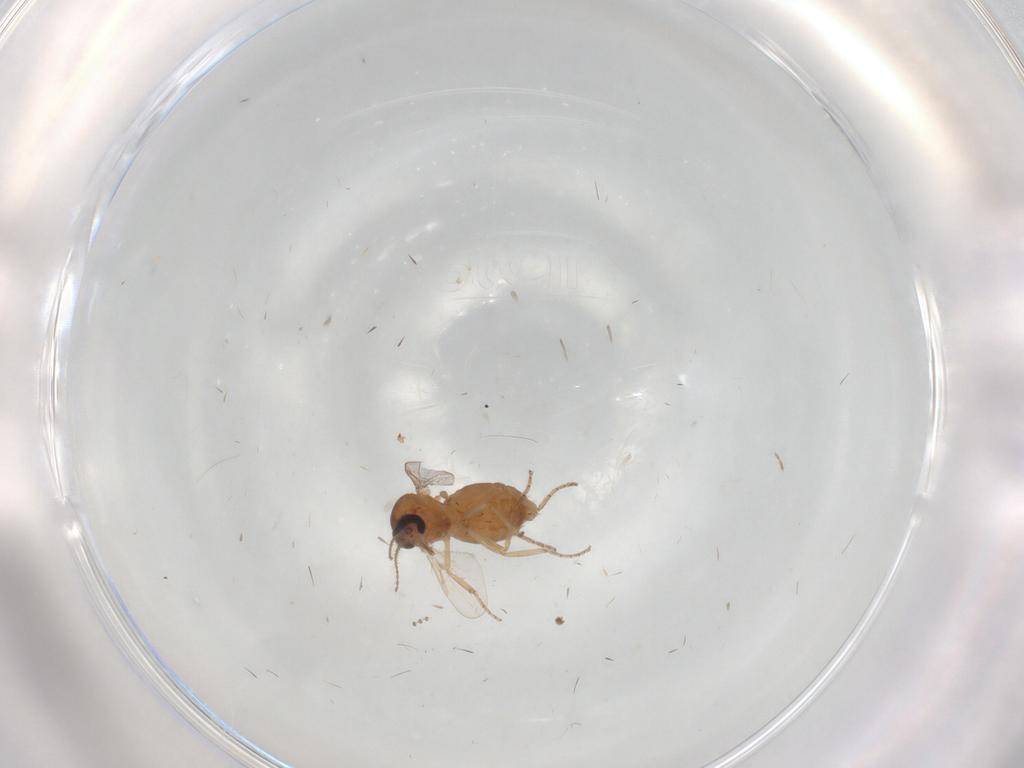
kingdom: Animalia
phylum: Arthropoda
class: Insecta
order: Diptera
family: Ceratopogonidae
